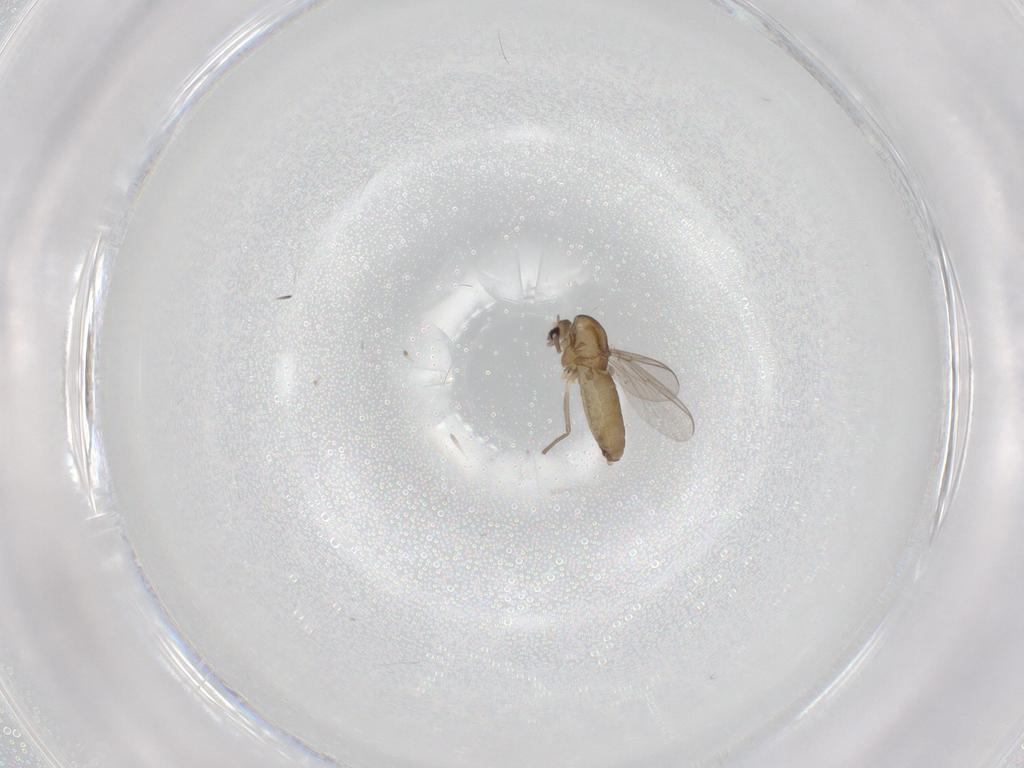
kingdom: Animalia
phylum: Arthropoda
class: Insecta
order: Diptera
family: Chironomidae
